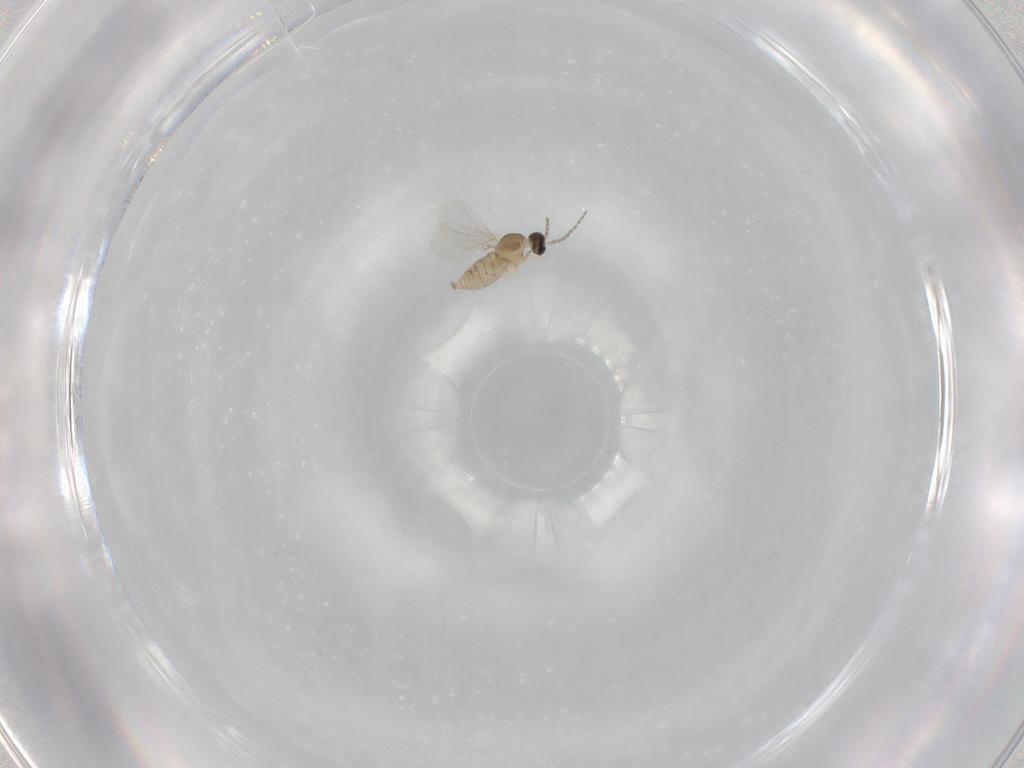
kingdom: Animalia
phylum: Arthropoda
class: Insecta
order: Diptera
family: Cecidomyiidae
